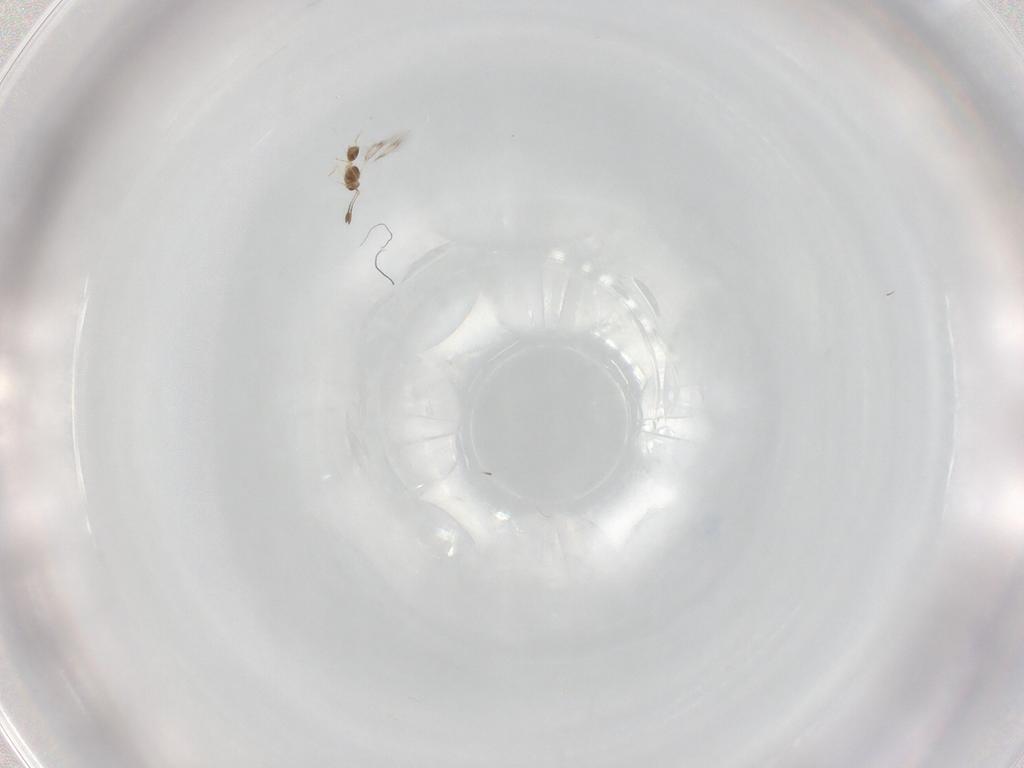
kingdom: Animalia
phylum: Arthropoda
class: Insecta
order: Hymenoptera
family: Mymarommatidae
